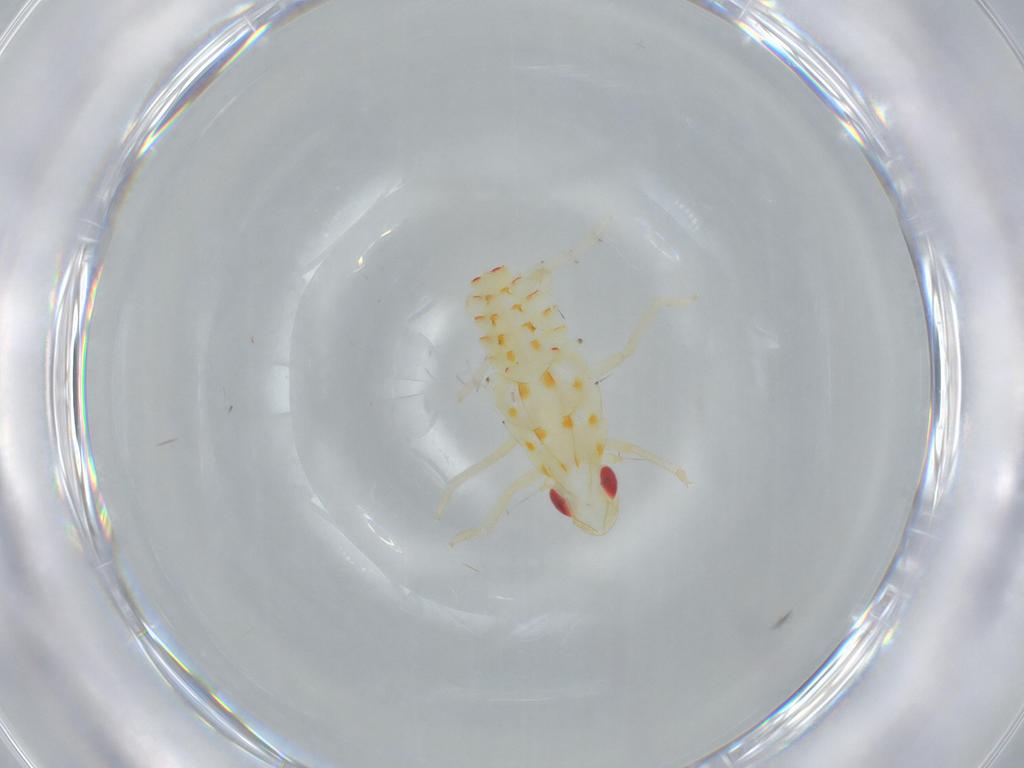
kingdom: Animalia
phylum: Arthropoda
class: Insecta
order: Hemiptera
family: Tropiduchidae
